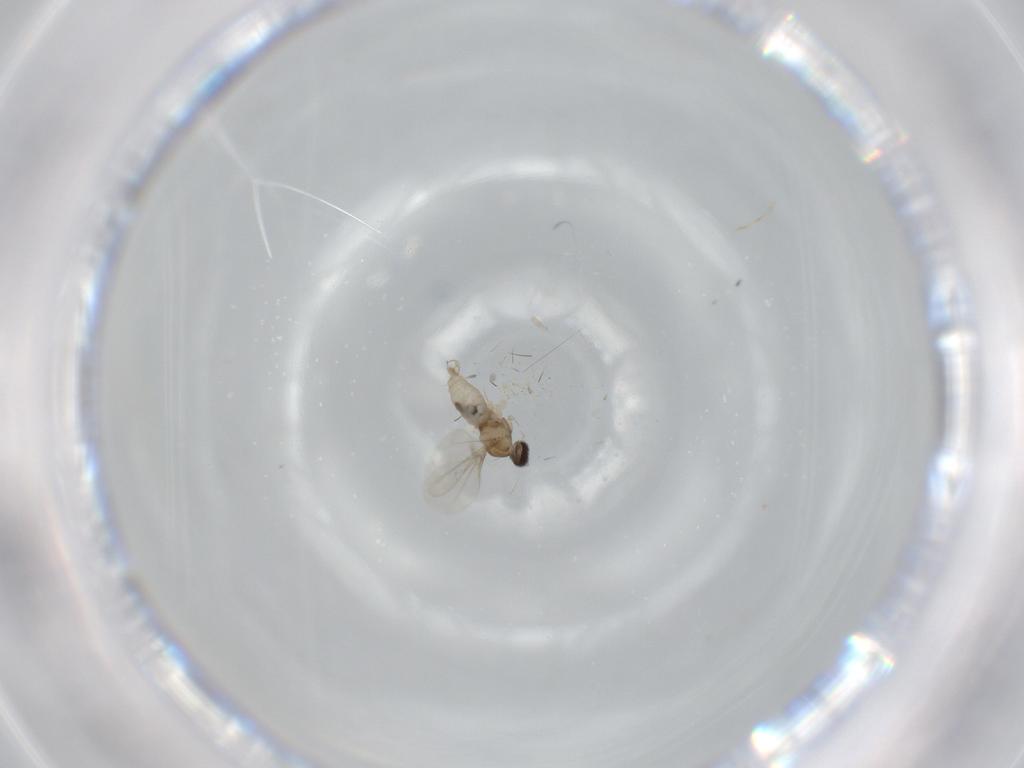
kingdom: Animalia
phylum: Arthropoda
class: Insecta
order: Diptera
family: Cecidomyiidae
